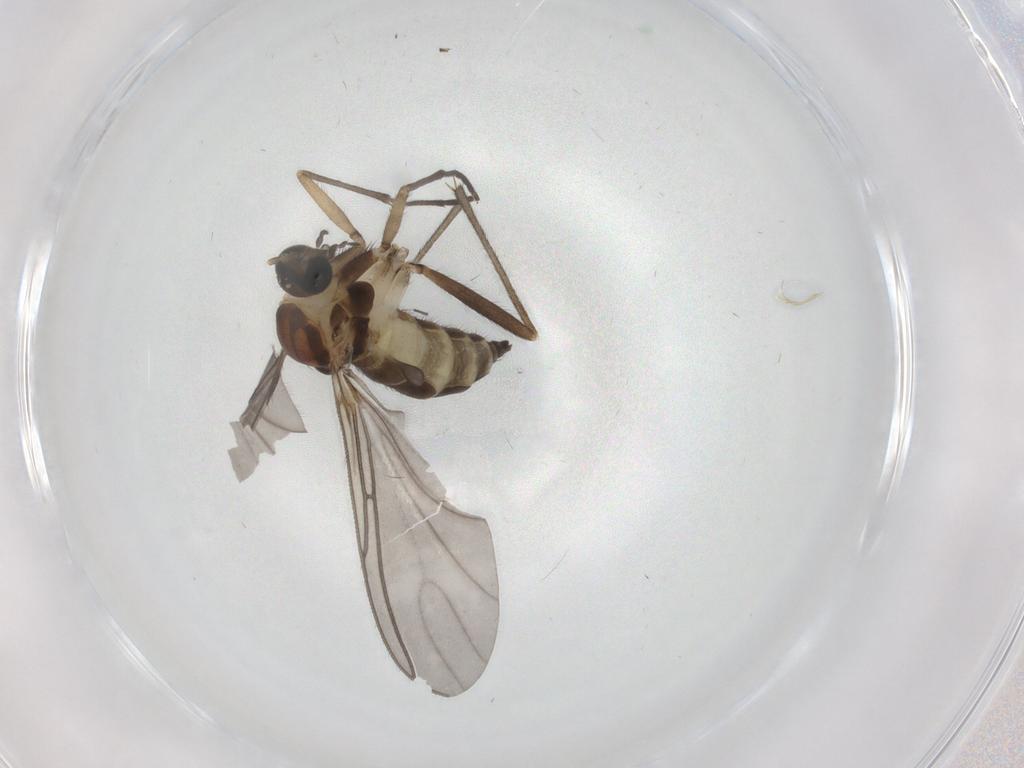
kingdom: Animalia
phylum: Arthropoda
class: Insecta
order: Diptera
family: Sciaridae
